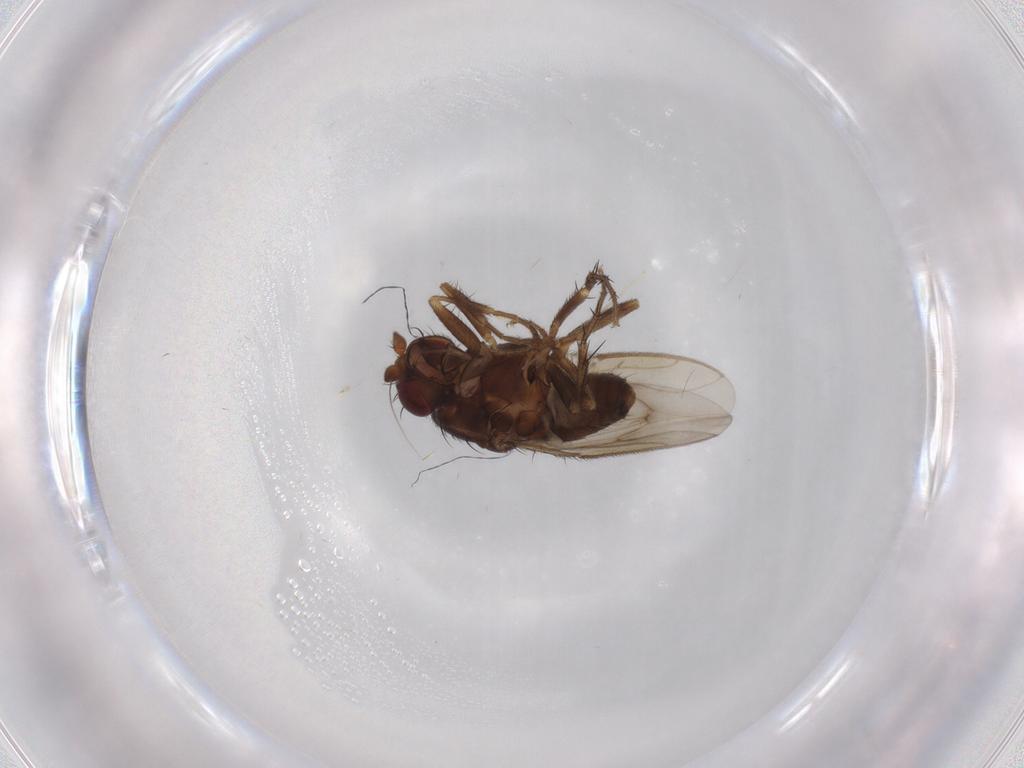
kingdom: Animalia
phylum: Arthropoda
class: Insecta
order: Diptera
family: Sphaeroceridae
